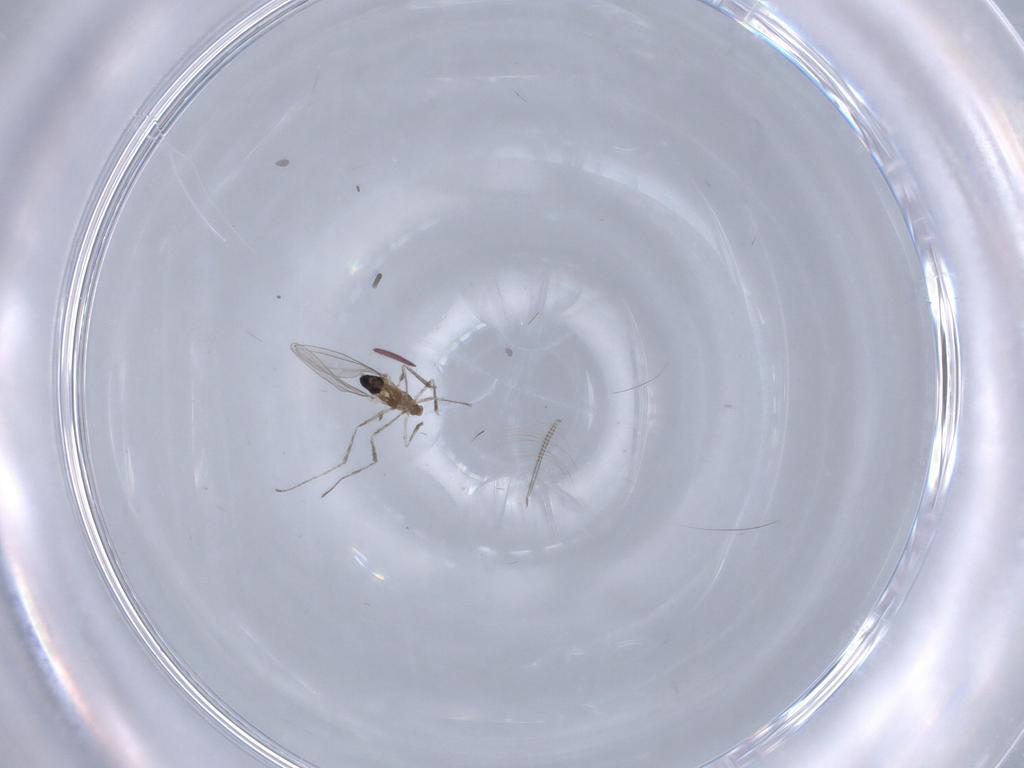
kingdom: Animalia
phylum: Arthropoda
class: Insecta
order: Diptera
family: Cecidomyiidae
